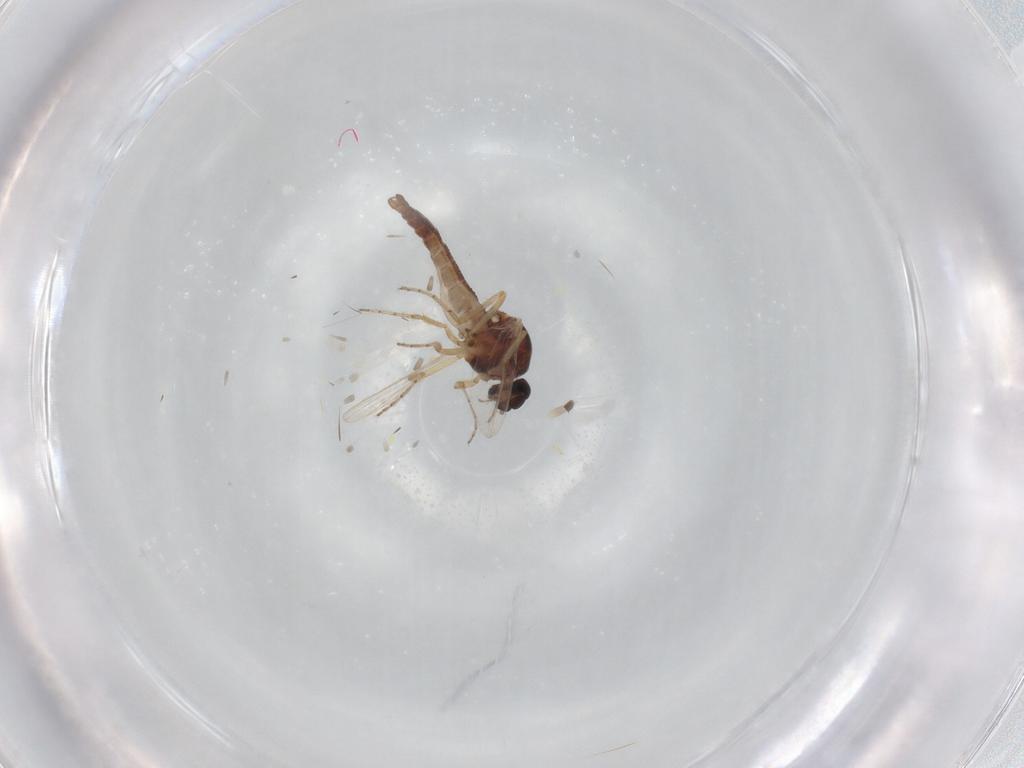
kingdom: Animalia
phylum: Arthropoda
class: Insecta
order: Diptera
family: Ceratopogonidae
